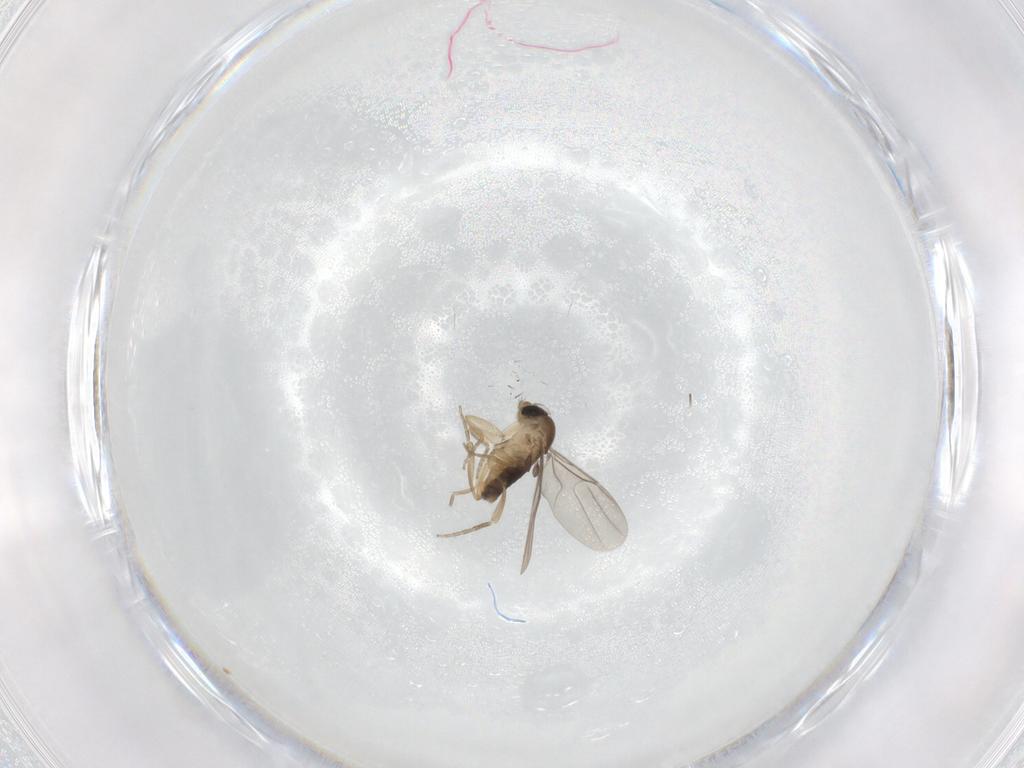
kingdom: Animalia
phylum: Arthropoda
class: Insecta
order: Diptera
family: Phoridae
